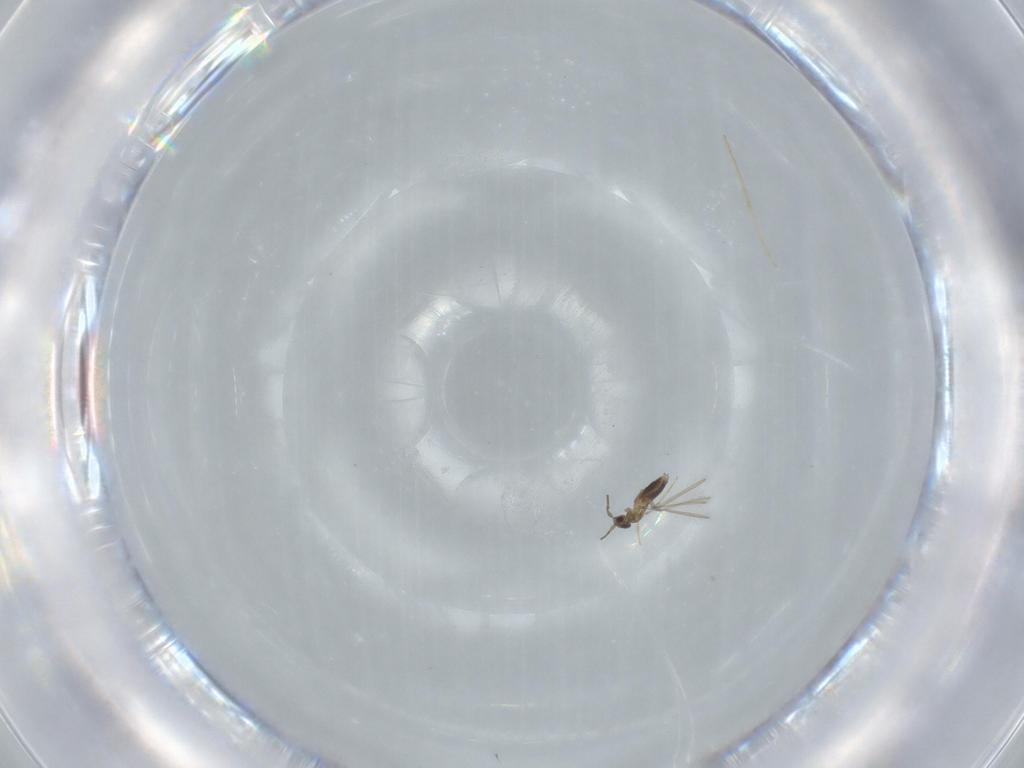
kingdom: Animalia
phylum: Arthropoda
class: Insecta
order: Hymenoptera
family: Mymaridae
